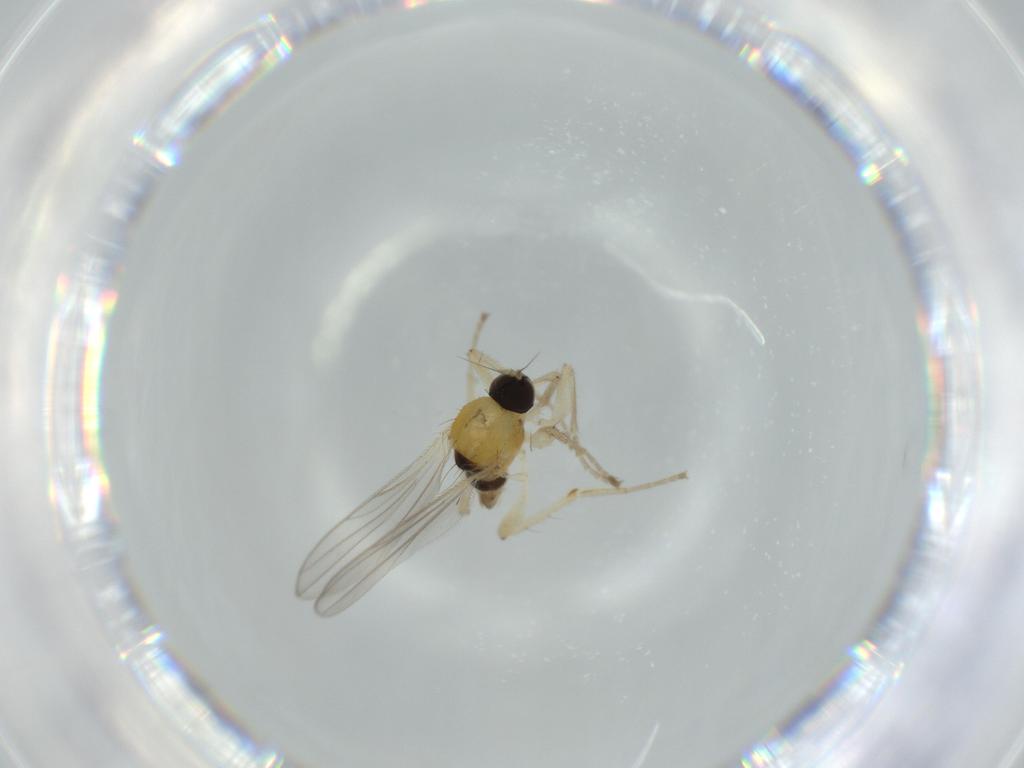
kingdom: Animalia
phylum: Arthropoda
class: Insecta
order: Diptera
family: Hybotidae
